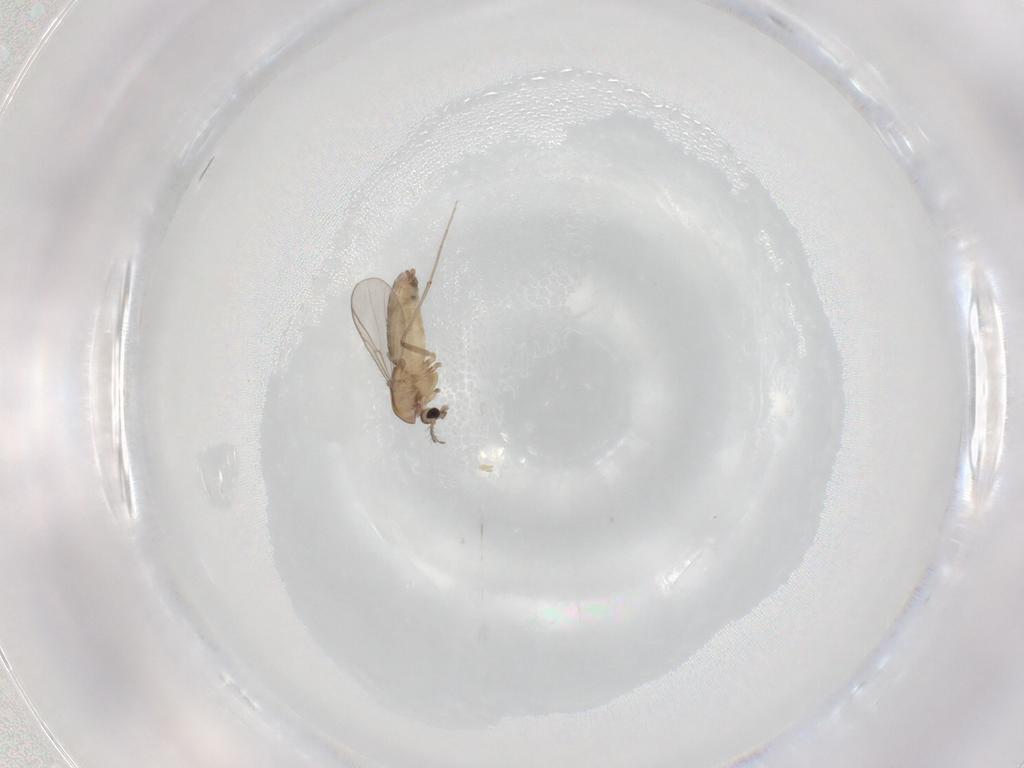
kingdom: Animalia
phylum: Arthropoda
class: Insecta
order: Diptera
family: Chironomidae
